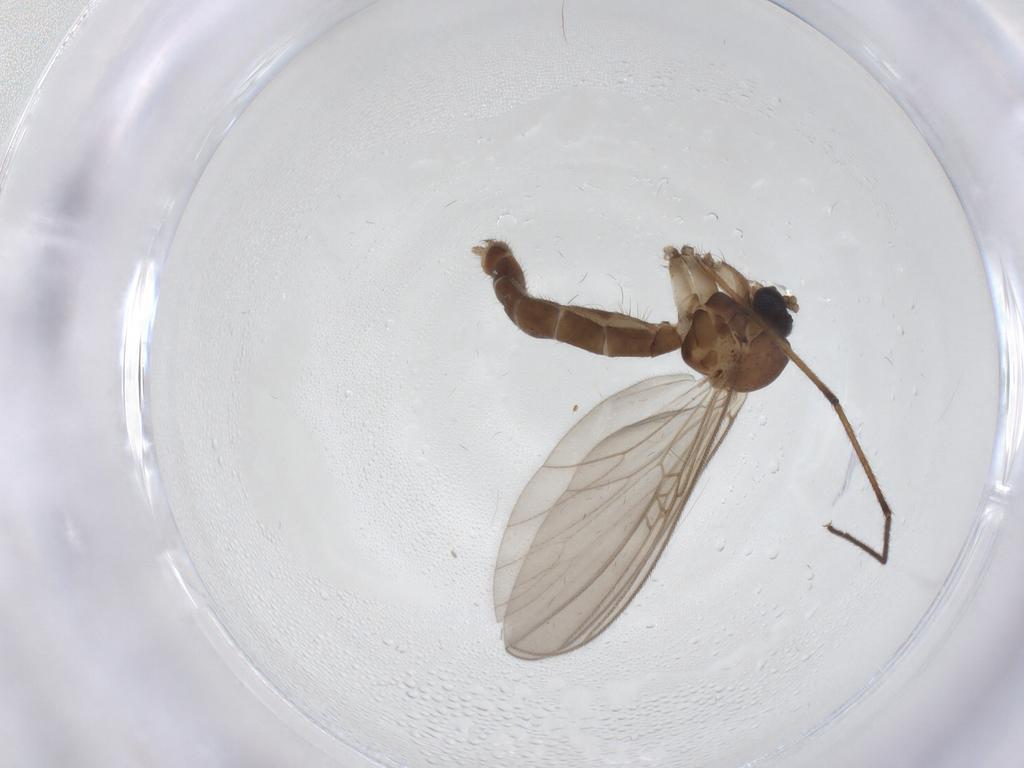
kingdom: Animalia
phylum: Arthropoda
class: Insecta
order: Diptera
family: Chironomidae
